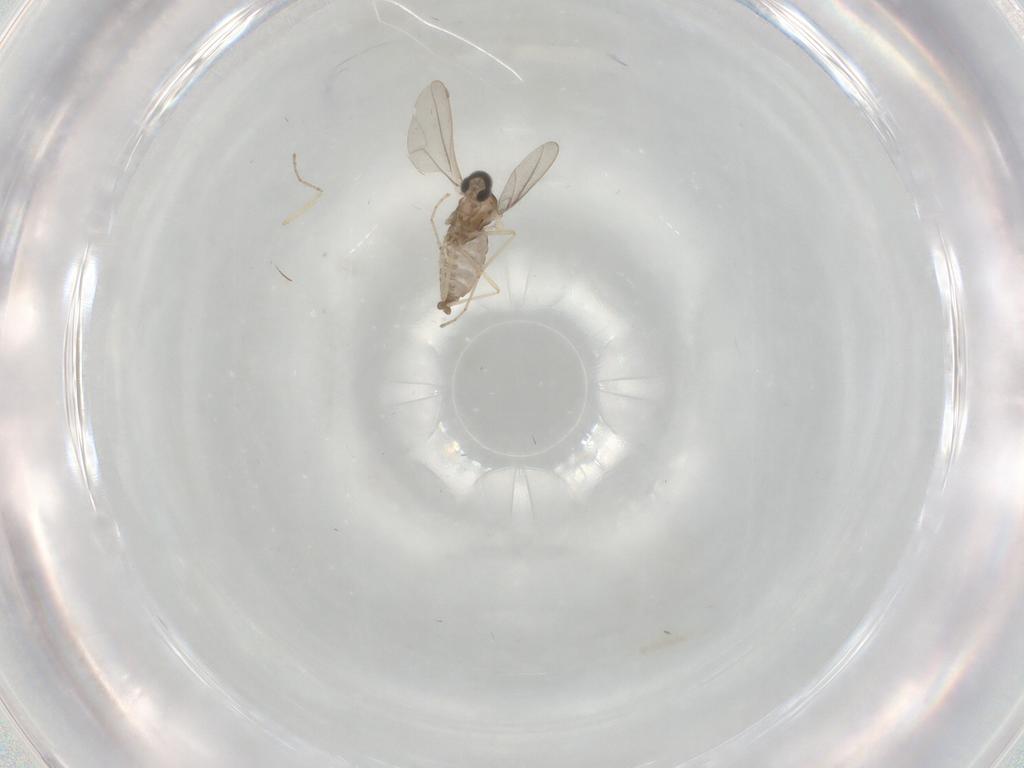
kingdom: Animalia
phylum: Arthropoda
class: Insecta
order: Diptera
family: Cecidomyiidae
